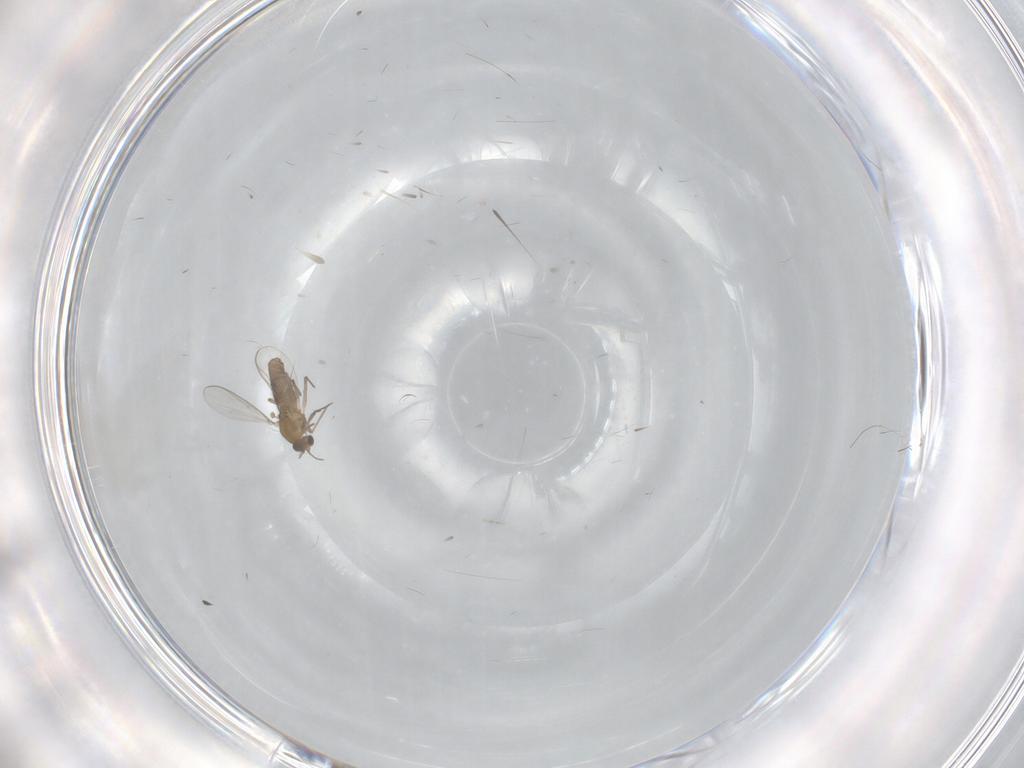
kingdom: Animalia
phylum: Arthropoda
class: Insecta
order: Diptera
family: Chironomidae
